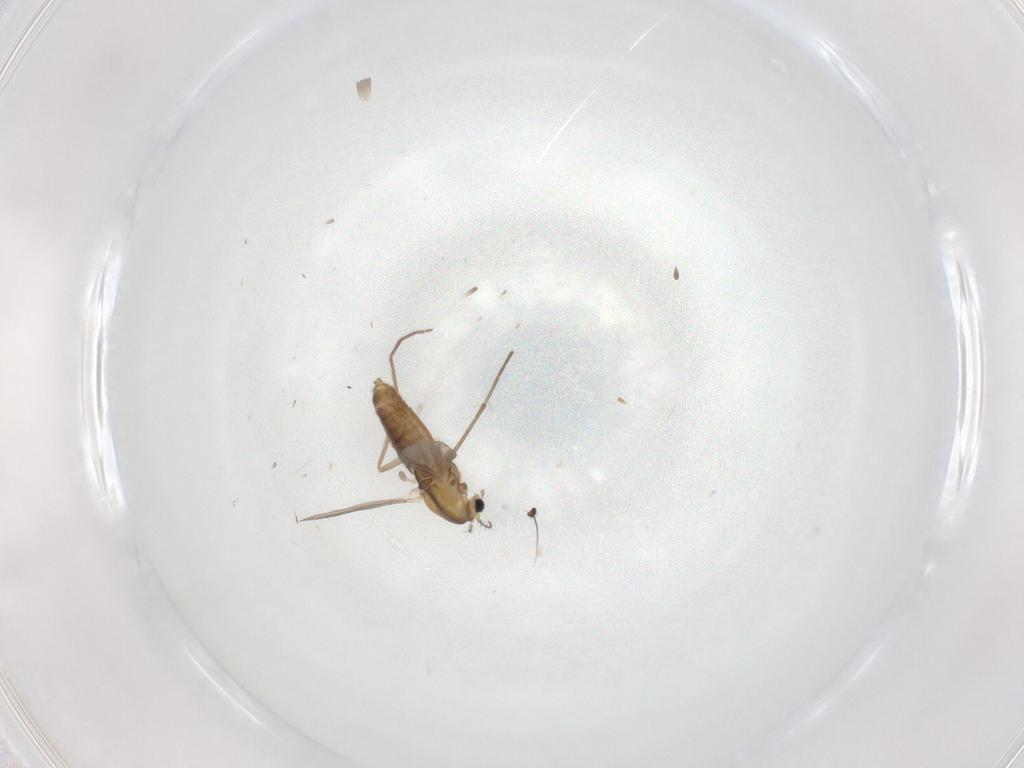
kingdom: Animalia
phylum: Arthropoda
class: Insecta
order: Diptera
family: Chironomidae
